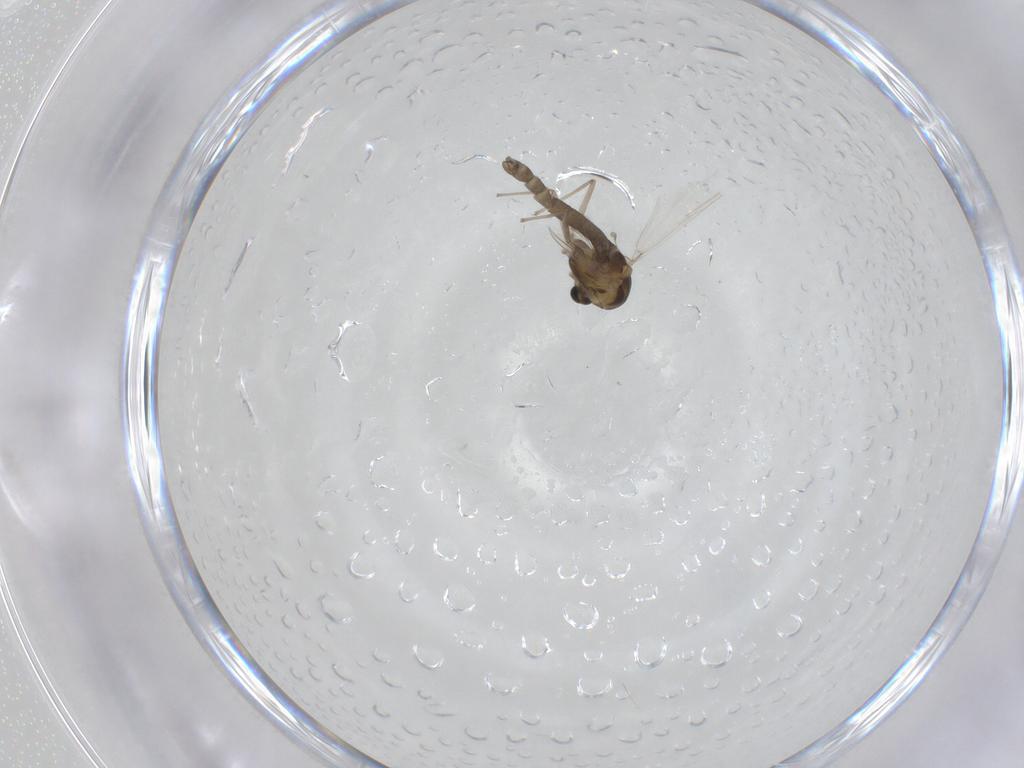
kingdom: Animalia
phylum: Arthropoda
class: Insecta
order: Diptera
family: Chironomidae
